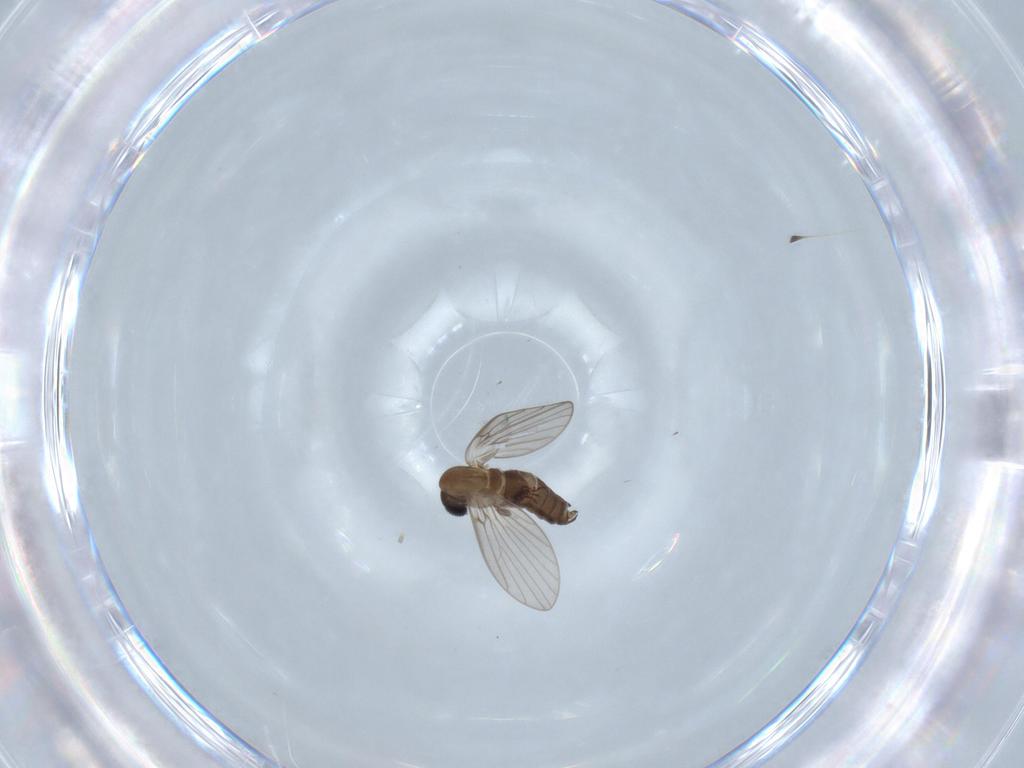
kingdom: Animalia
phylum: Arthropoda
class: Insecta
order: Diptera
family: Psychodidae
